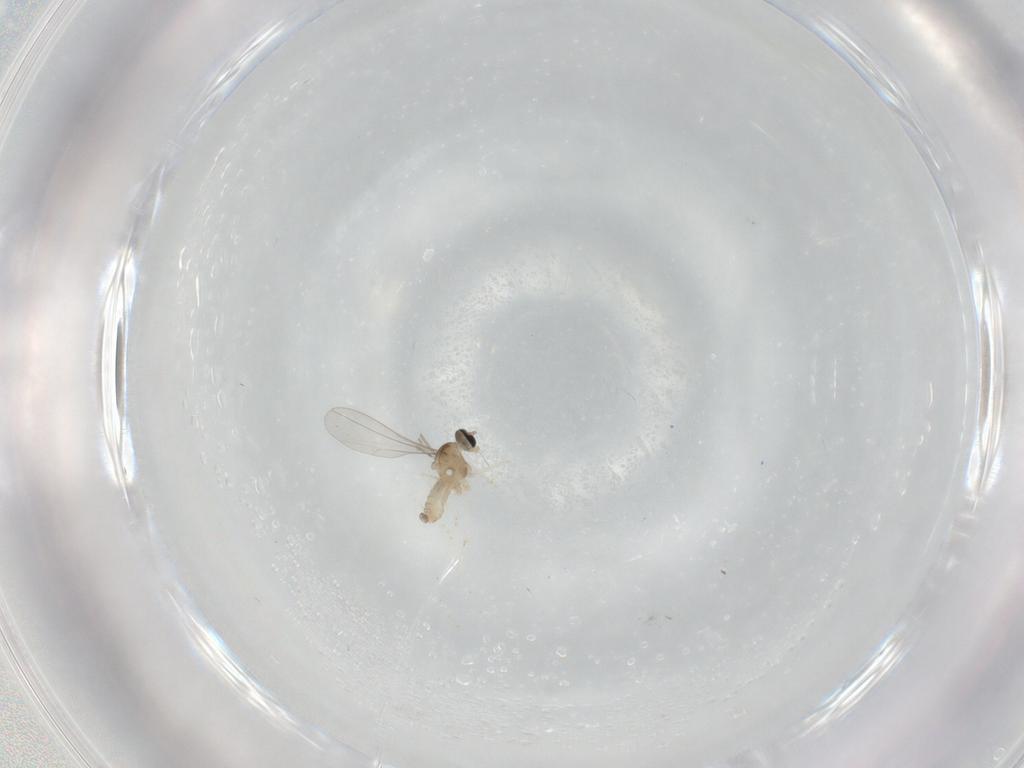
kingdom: Animalia
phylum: Arthropoda
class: Insecta
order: Diptera
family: Cecidomyiidae
